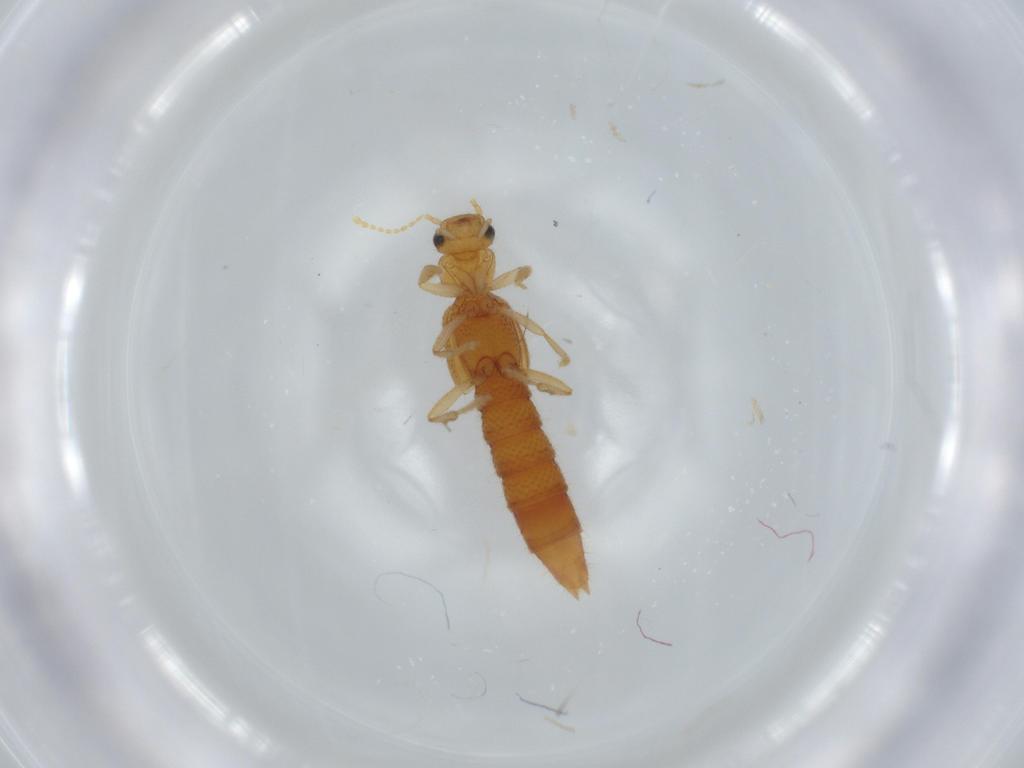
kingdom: Animalia
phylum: Arthropoda
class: Insecta
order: Coleoptera
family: Staphylinidae
